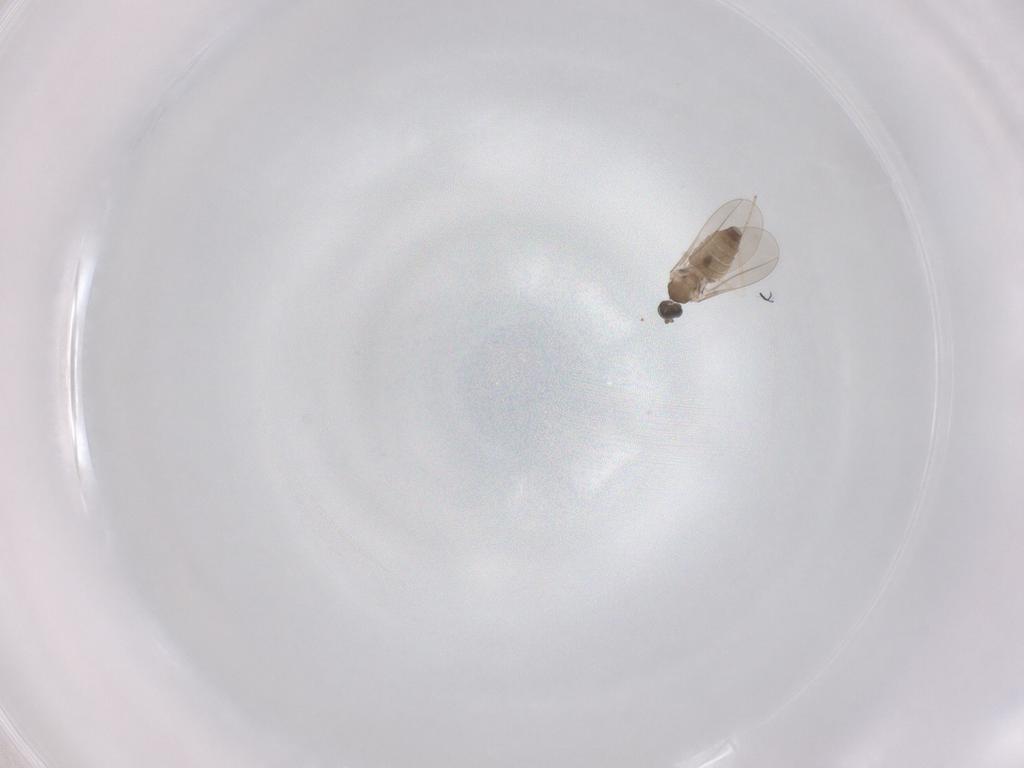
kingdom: Animalia
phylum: Arthropoda
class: Insecta
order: Diptera
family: Cecidomyiidae
